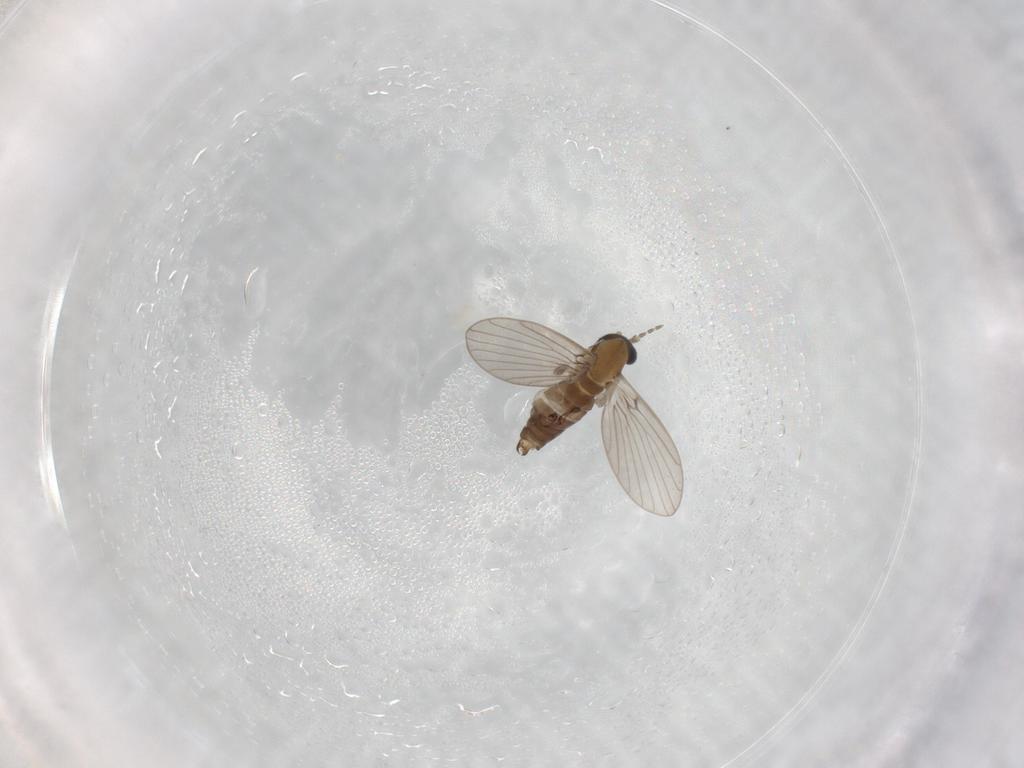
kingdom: Animalia
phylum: Arthropoda
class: Insecta
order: Diptera
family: Psychodidae
